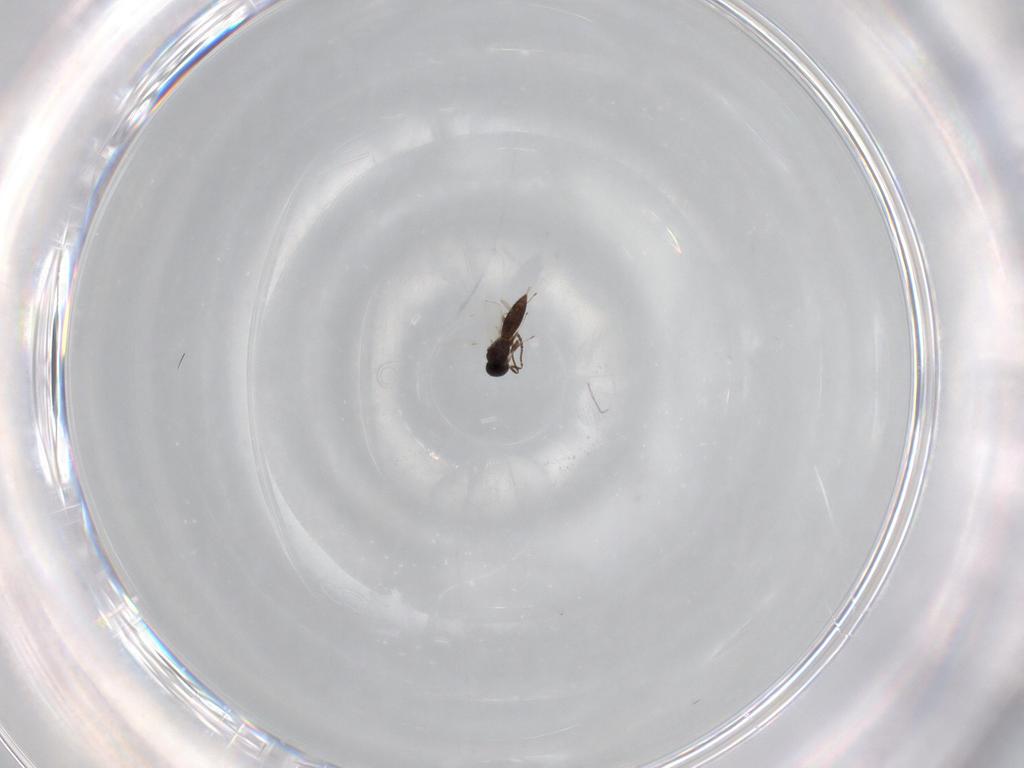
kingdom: Animalia
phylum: Arthropoda
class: Insecta
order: Hymenoptera
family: Scelionidae
